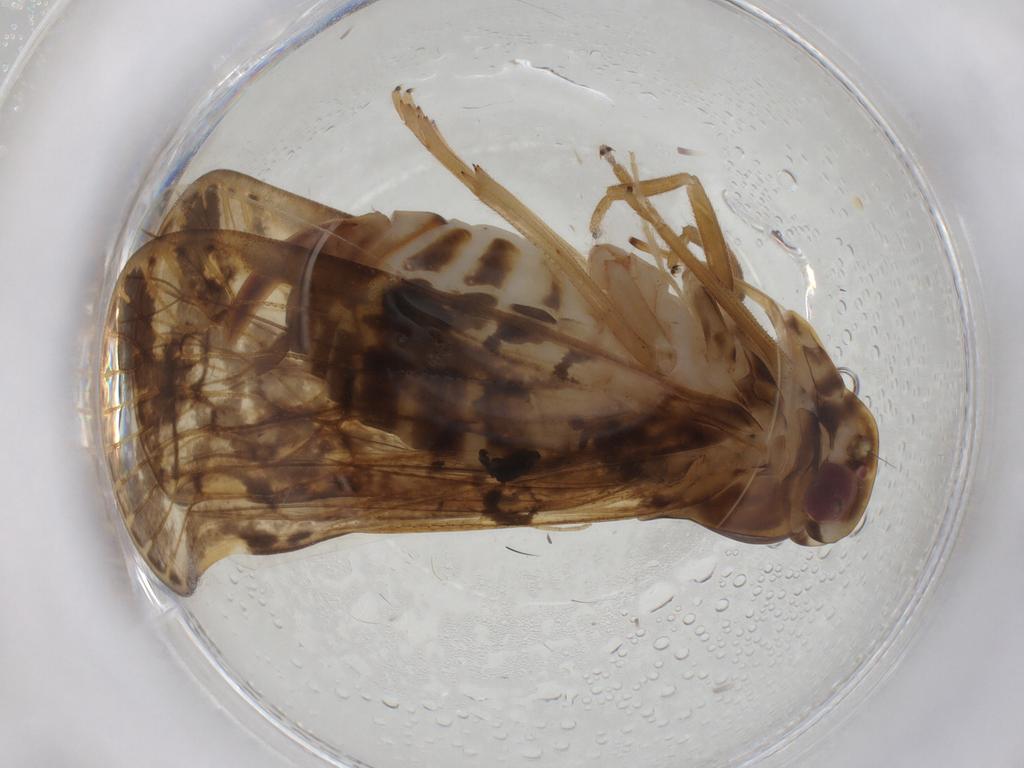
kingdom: Animalia
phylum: Arthropoda
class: Insecta
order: Hemiptera
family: Cixiidae
